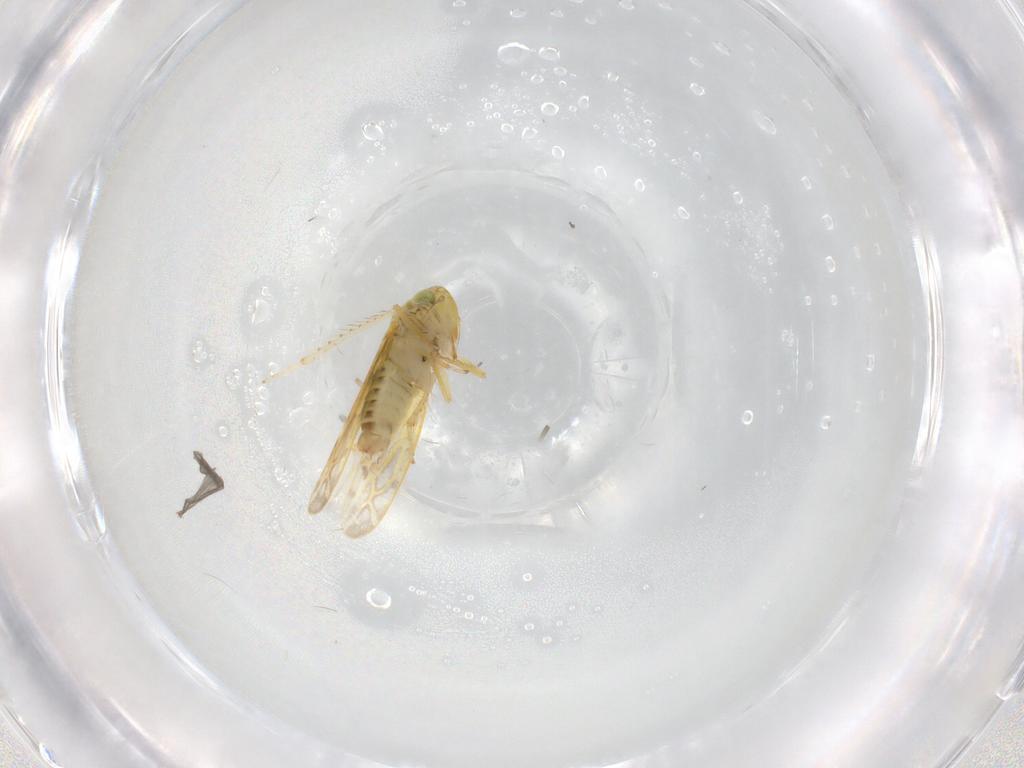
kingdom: Animalia
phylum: Arthropoda
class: Insecta
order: Hemiptera
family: Cicadellidae
